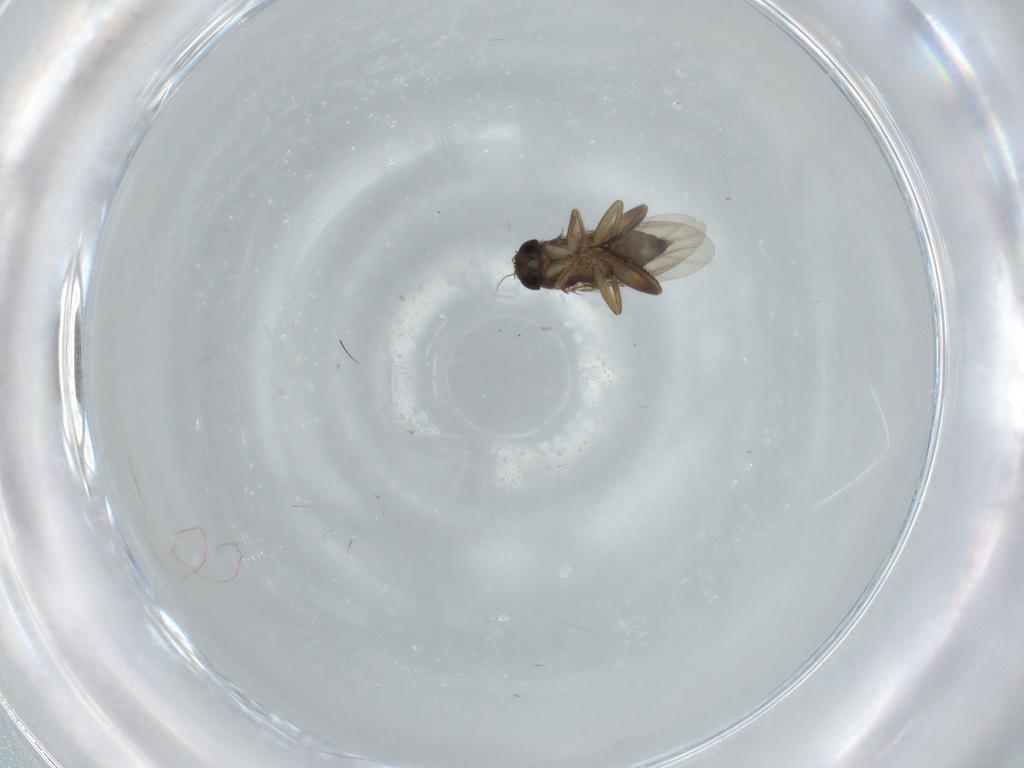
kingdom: Animalia
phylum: Arthropoda
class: Insecta
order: Diptera
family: Phoridae
